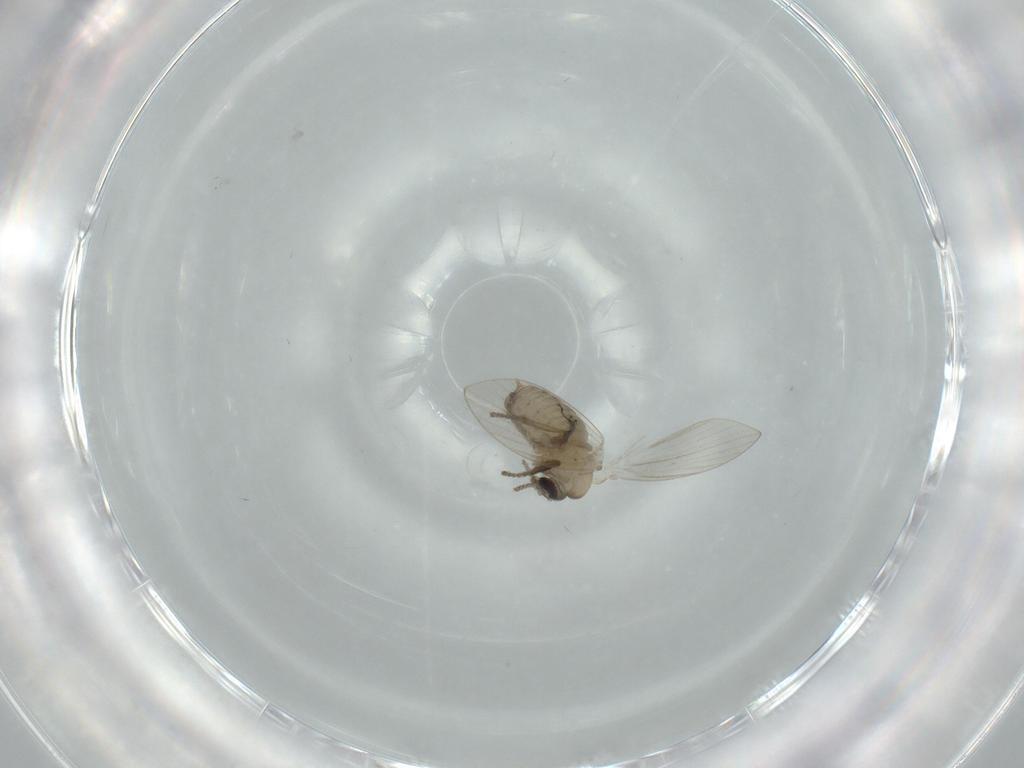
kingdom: Animalia
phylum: Arthropoda
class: Insecta
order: Diptera
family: Psychodidae
